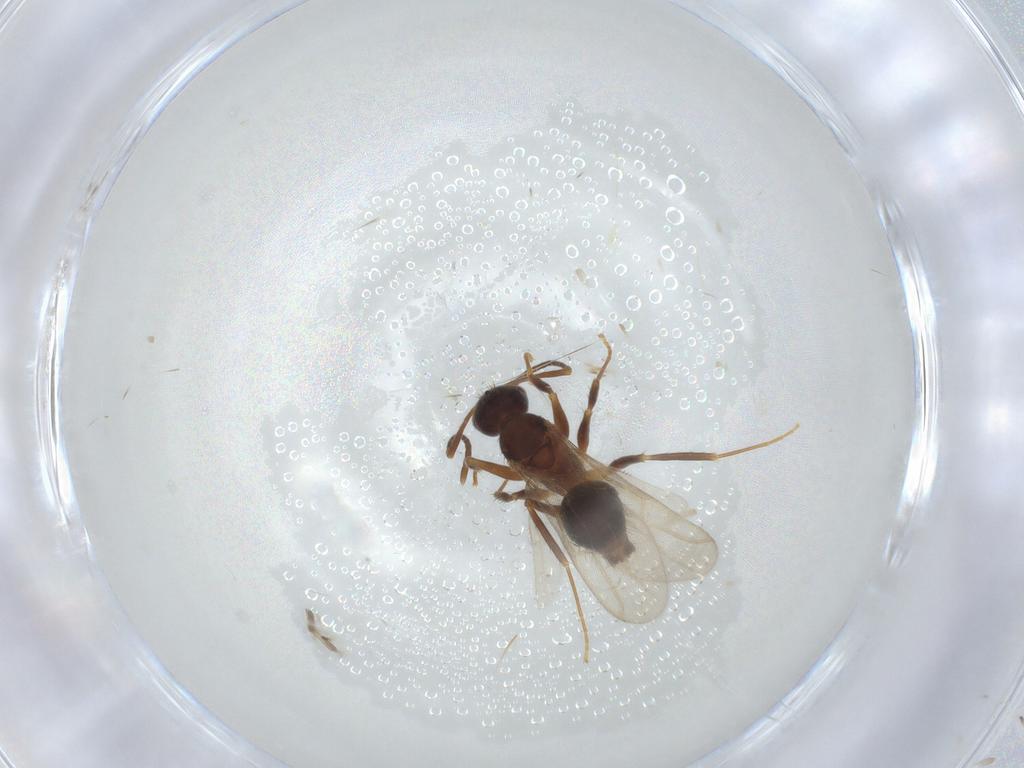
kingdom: Animalia
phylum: Arthropoda
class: Insecta
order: Hymenoptera
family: Formicidae
